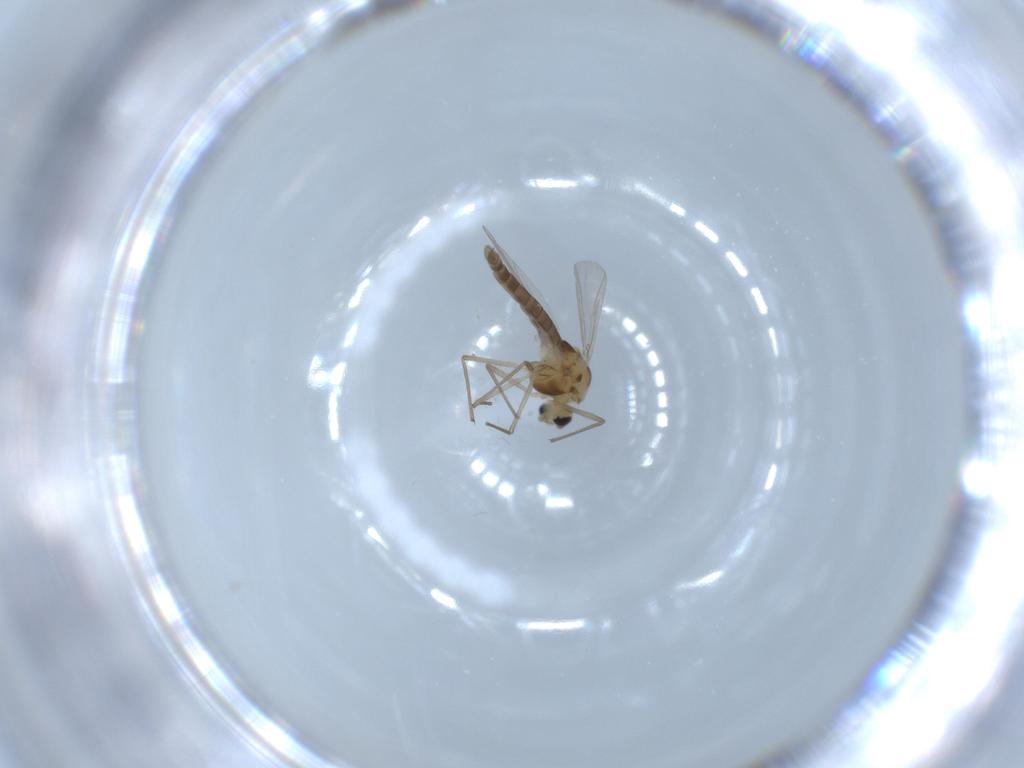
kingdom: Animalia
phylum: Arthropoda
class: Insecta
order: Diptera
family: Chironomidae
